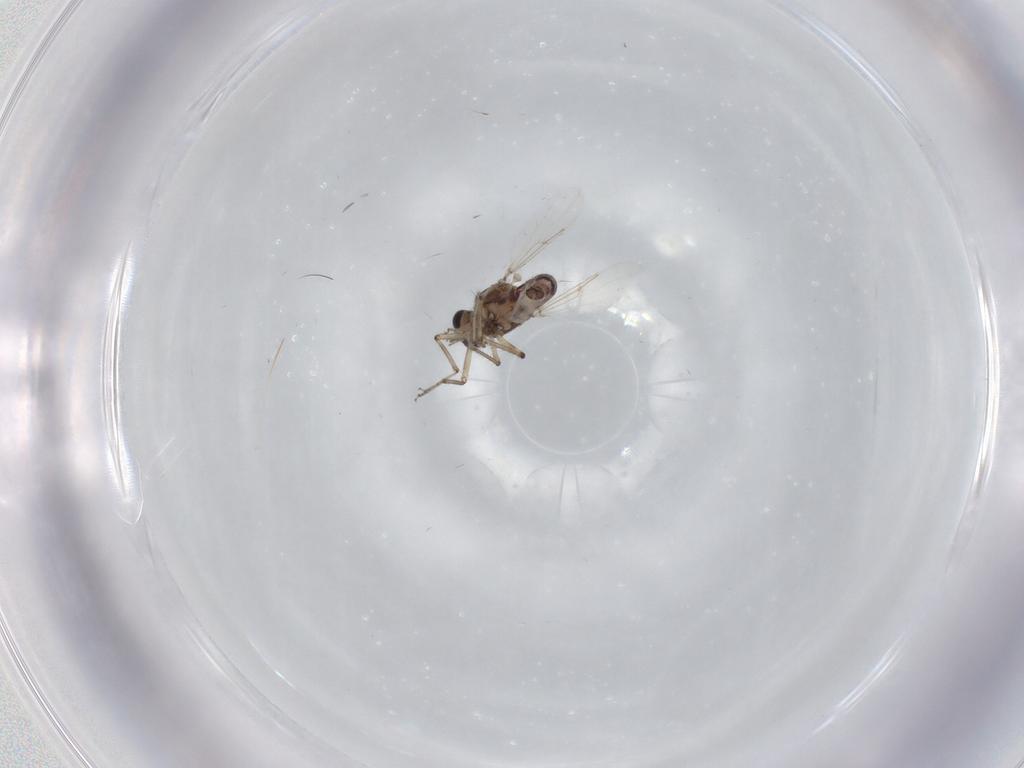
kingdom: Animalia
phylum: Arthropoda
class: Insecta
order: Diptera
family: Ceratopogonidae
